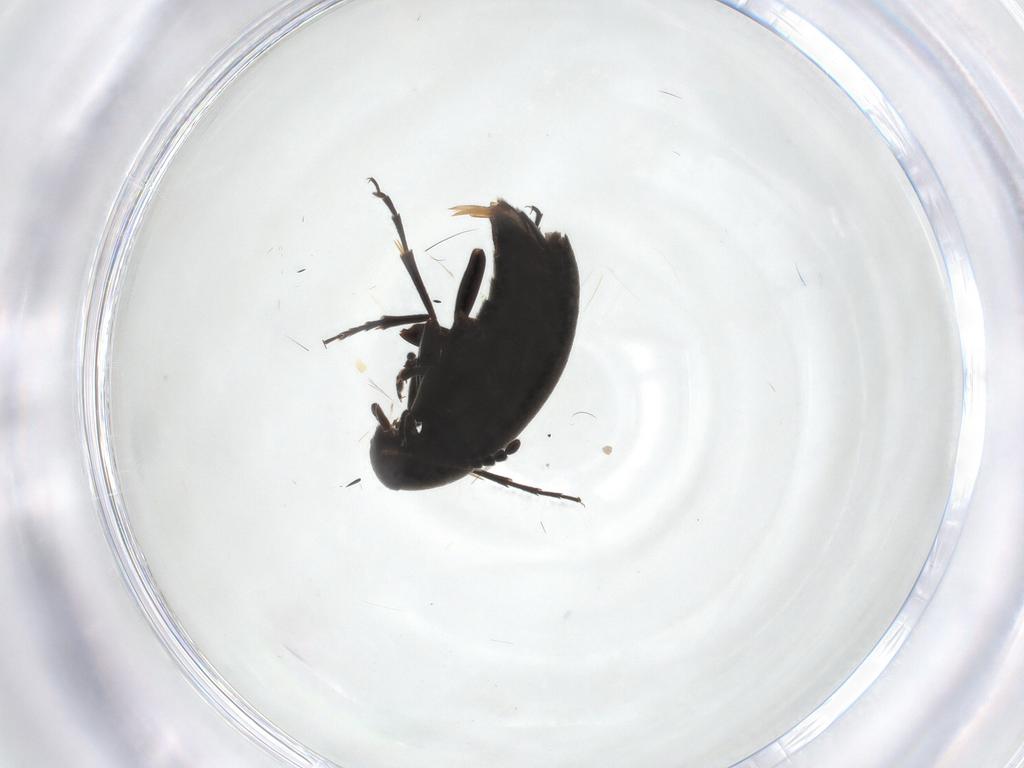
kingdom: Animalia
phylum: Arthropoda
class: Insecta
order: Coleoptera
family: Scraptiidae
